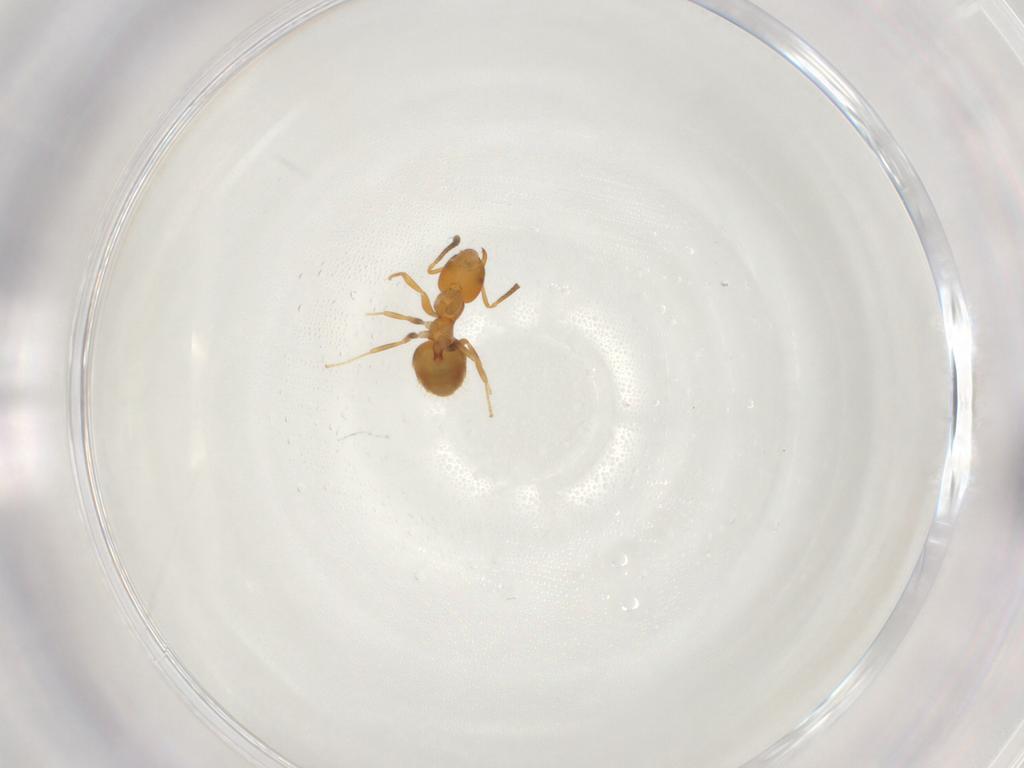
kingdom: Animalia
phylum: Arthropoda
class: Insecta
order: Hymenoptera
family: Formicidae
